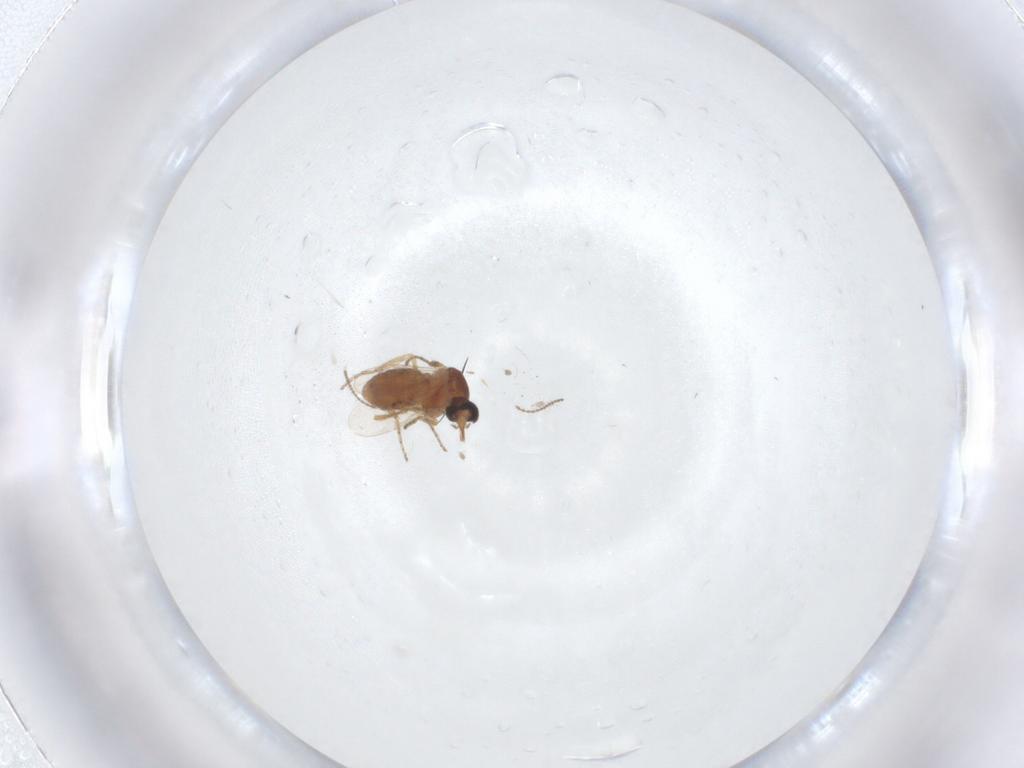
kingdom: Animalia
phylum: Arthropoda
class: Insecta
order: Diptera
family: Ceratopogonidae
